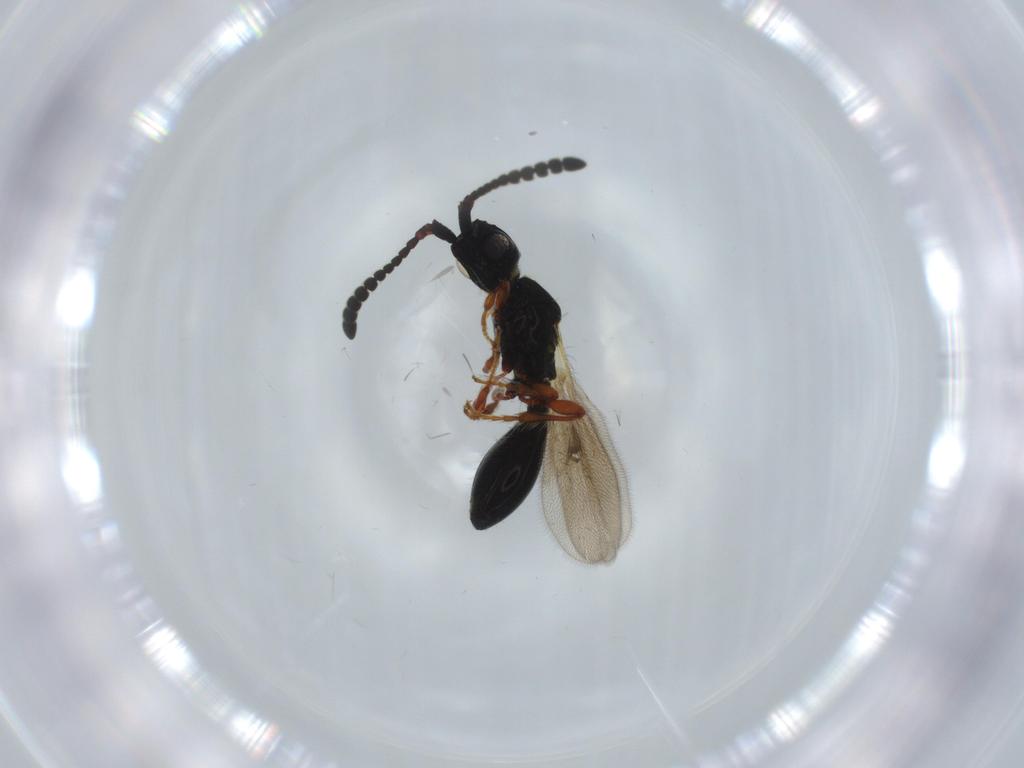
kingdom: Animalia
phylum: Arthropoda
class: Insecta
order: Hymenoptera
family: Diapriidae
